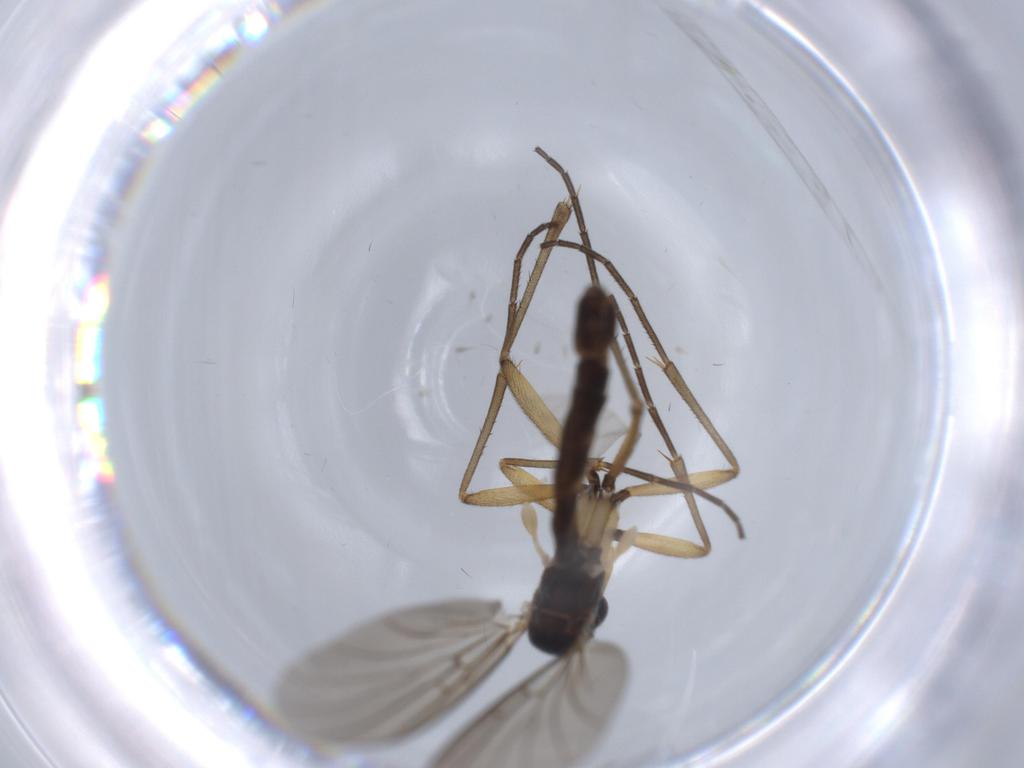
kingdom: Animalia
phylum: Arthropoda
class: Insecta
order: Diptera
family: Mycetophilidae
